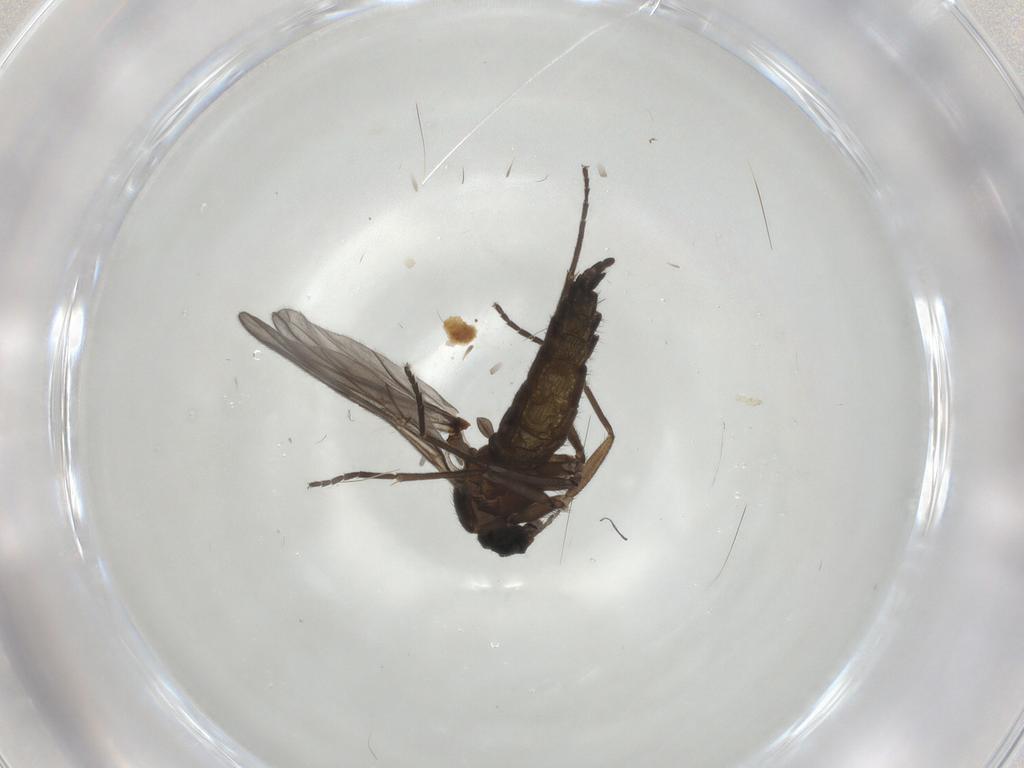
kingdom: Animalia
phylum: Arthropoda
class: Insecta
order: Diptera
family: Sciaridae
